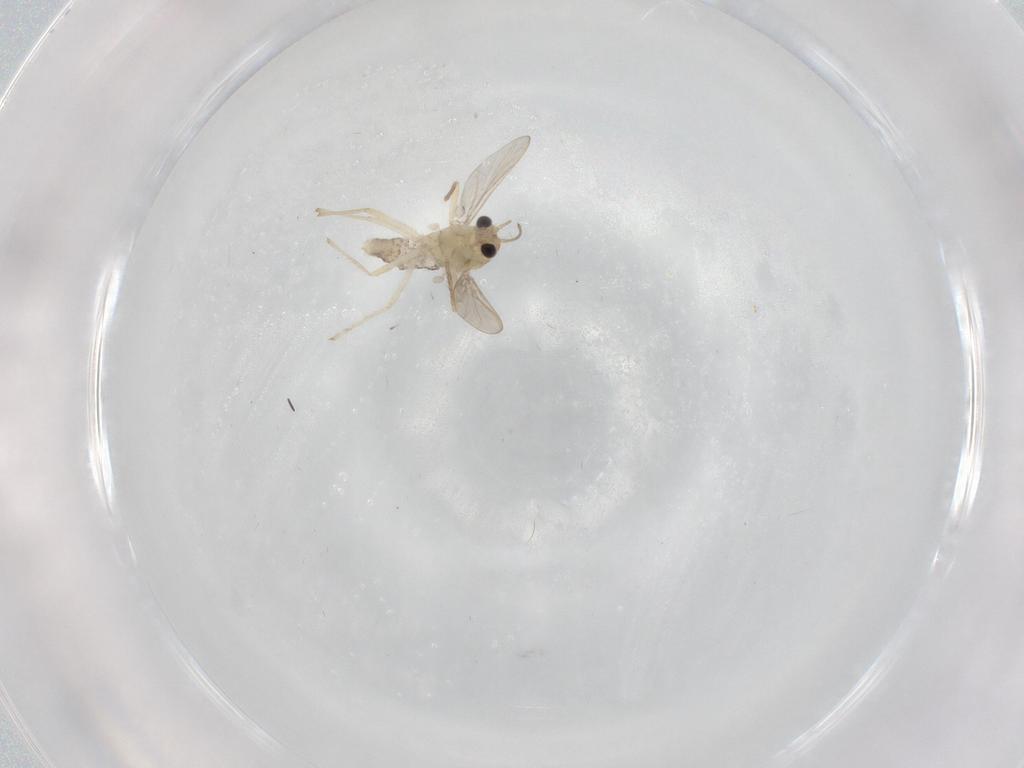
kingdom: Animalia
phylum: Arthropoda
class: Insecta
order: Diptera
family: Chironomidae
